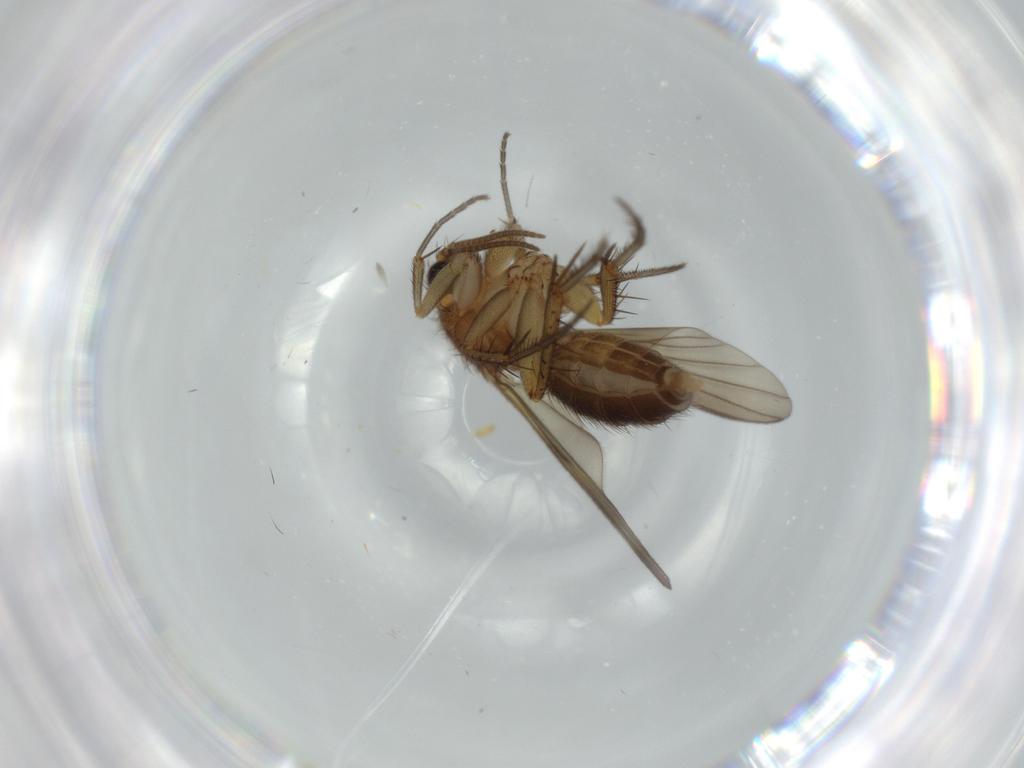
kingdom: Animalia
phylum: Arthropoda
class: Insecta
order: Diptera
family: Mycetophilidae
